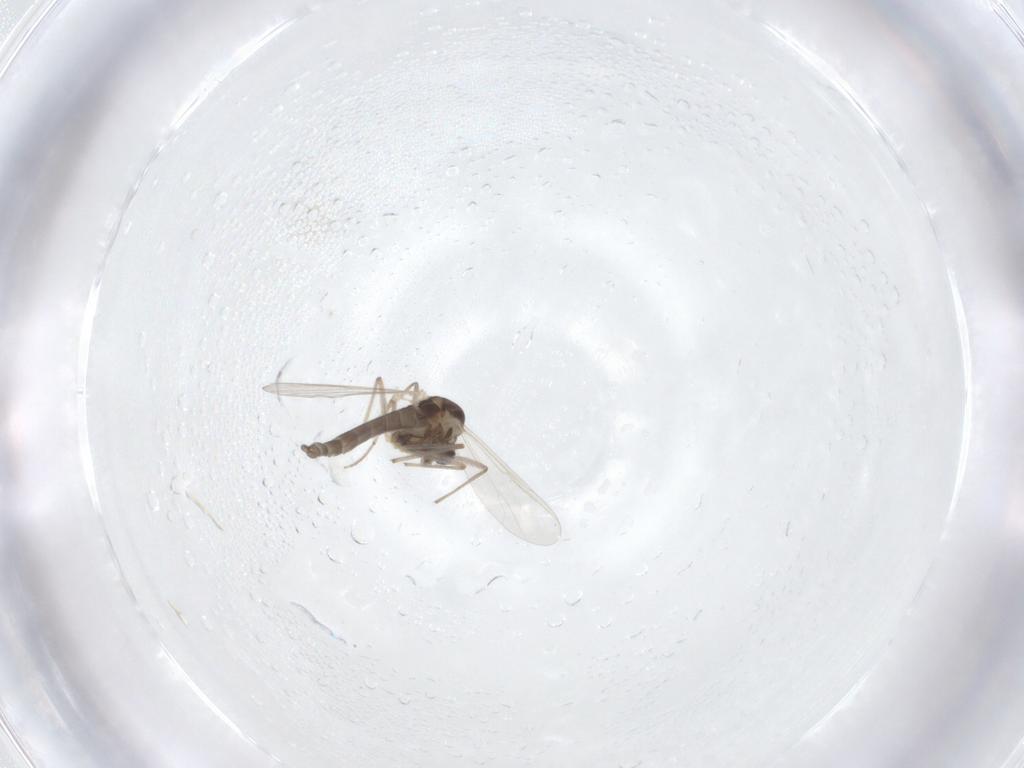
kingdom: Animalia
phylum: Arthropoda
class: Insecta
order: Diptera
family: Chironomidae
